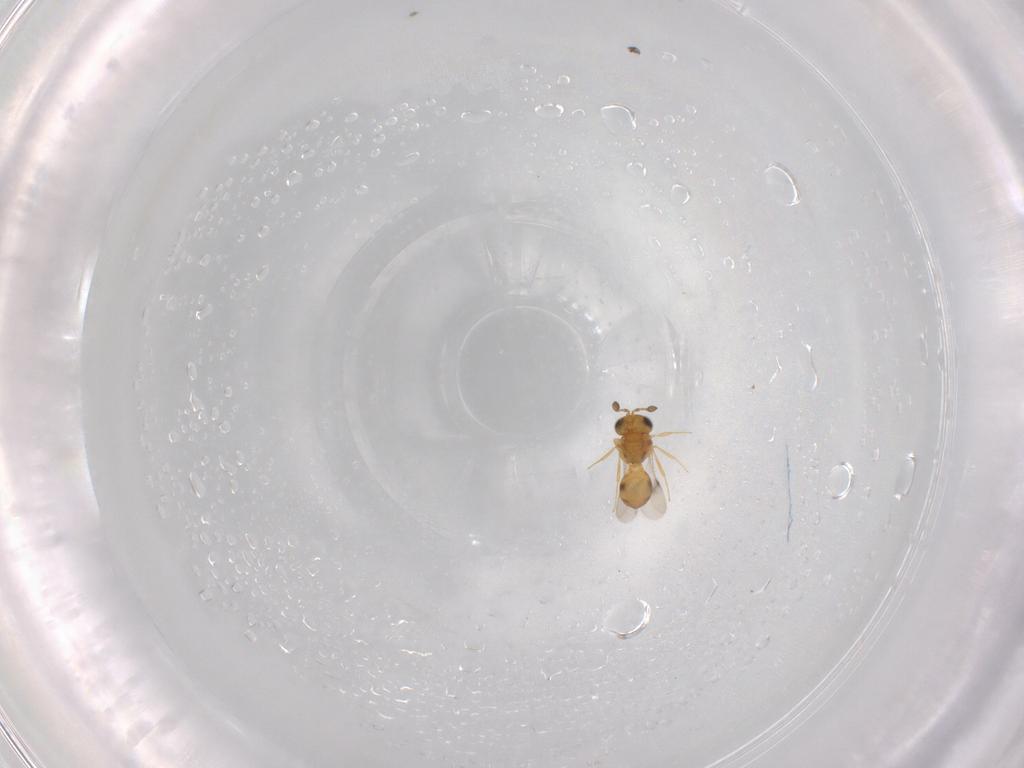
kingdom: Animalia
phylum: Arthropoda
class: Insecta
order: Hymenoptera
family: Scelionidae
